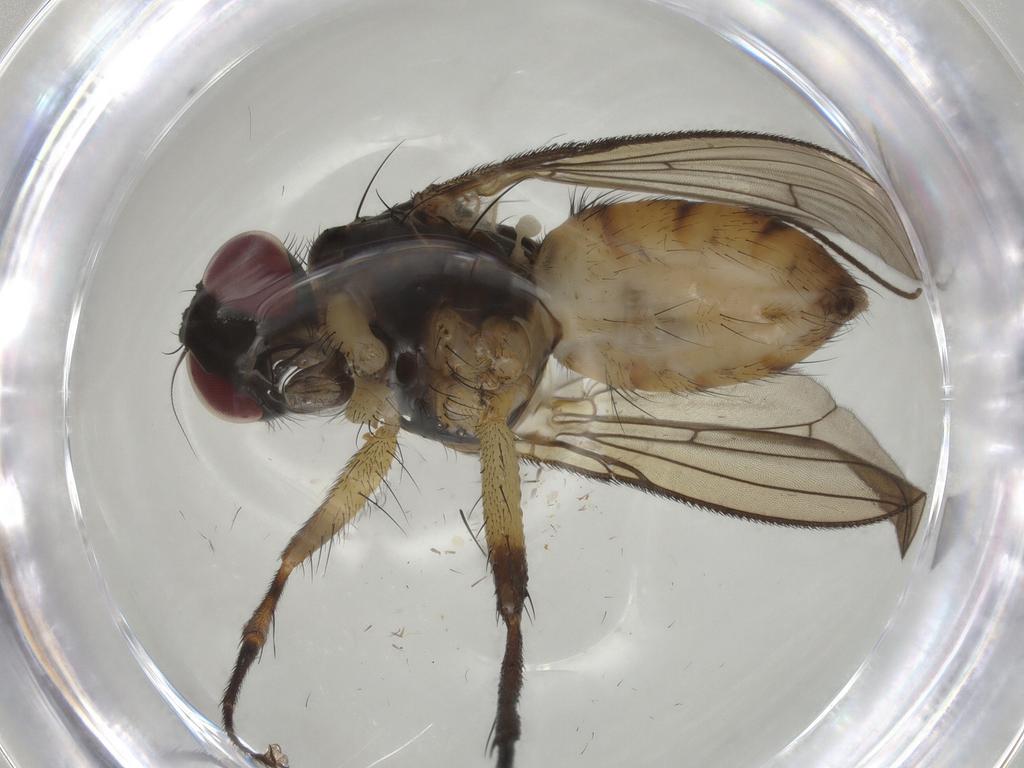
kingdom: Animalia
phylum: Arthropoda
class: Insecta
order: Diptera
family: Muscidae
